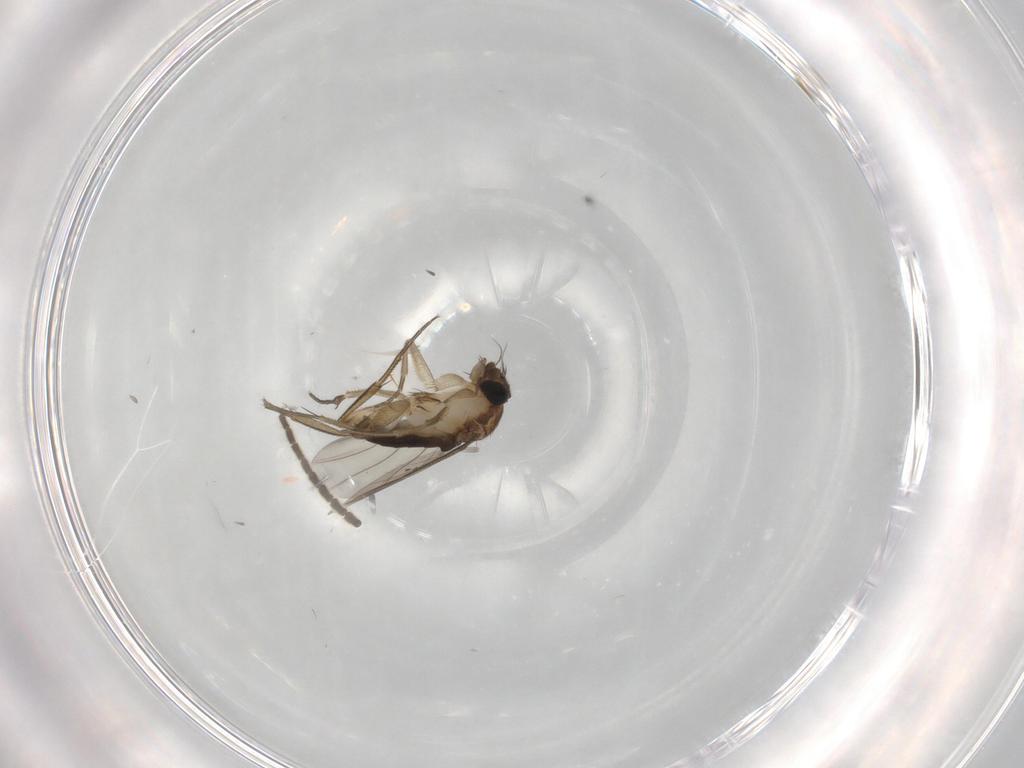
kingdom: Animalia
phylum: Arthropoda
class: Insecta
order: Diptera
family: Phoridae
